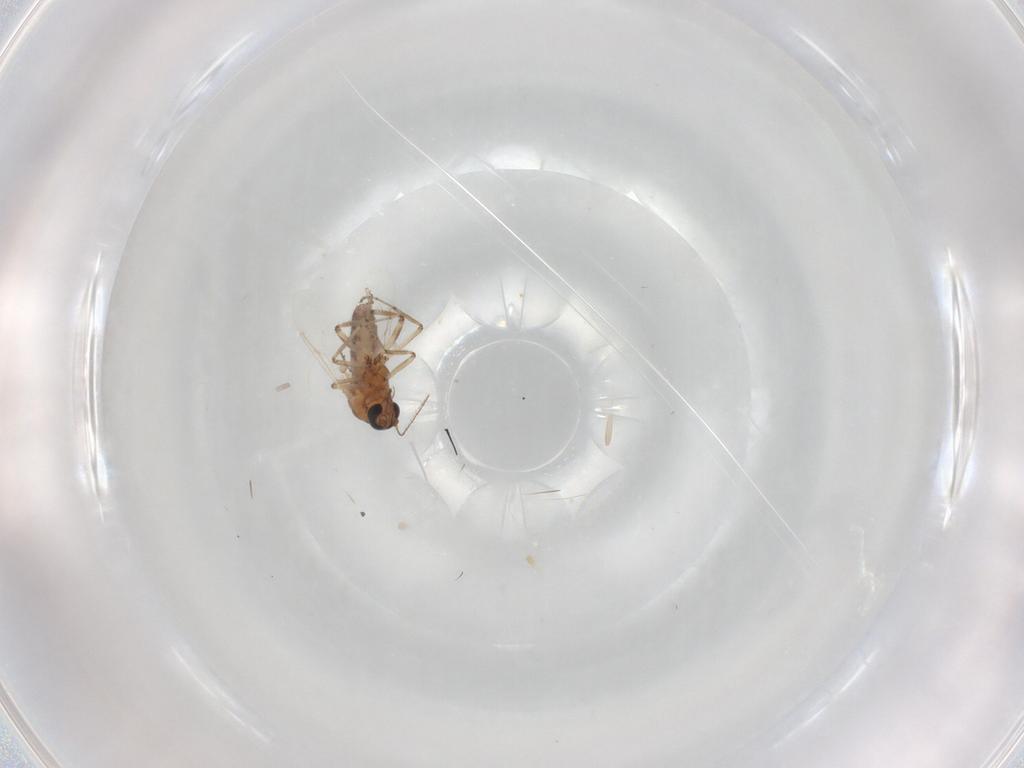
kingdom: Animalia
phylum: Arthropoda
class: Insecta
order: Diptera
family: Ceratopogonidae
